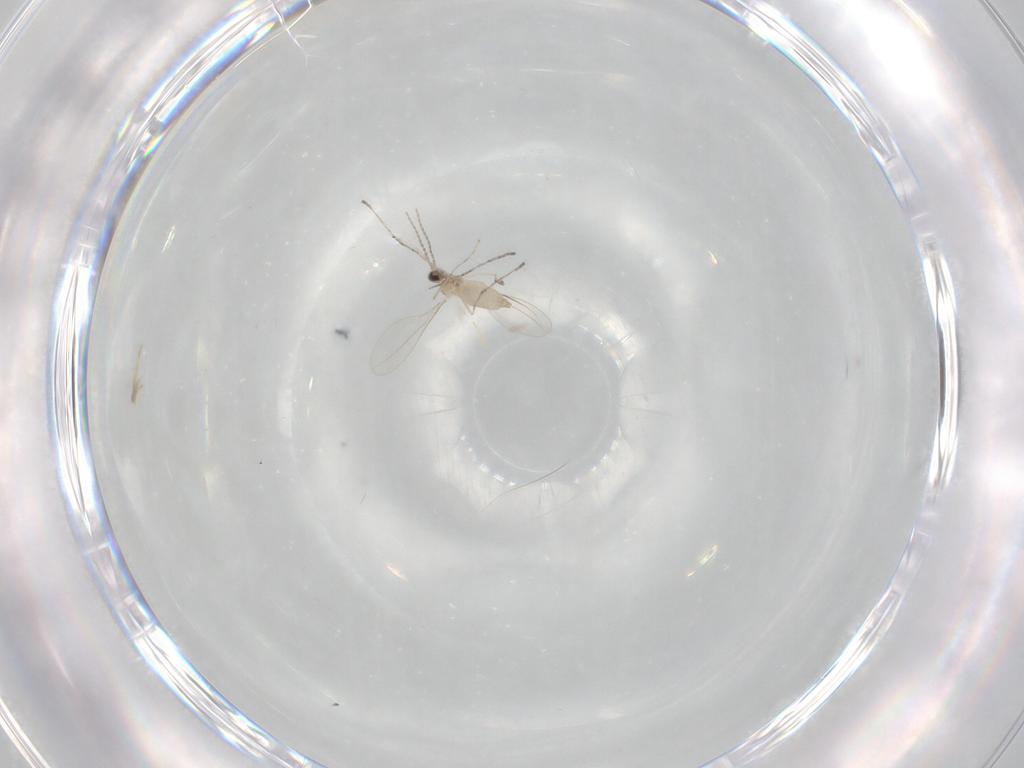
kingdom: Animalia
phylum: Arthropoda
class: Insecta
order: Diptera
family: Cecidomyiidae
